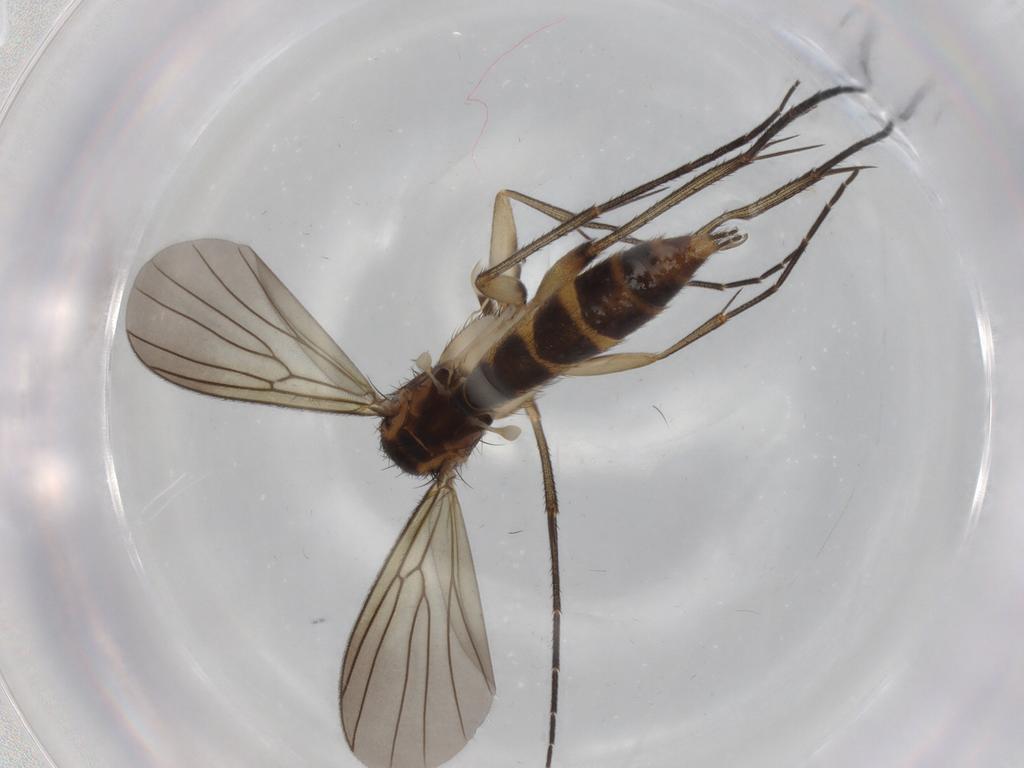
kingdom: Animalia
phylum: Arthropoda
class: Insecta
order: Diptera
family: Mycetophilidae
